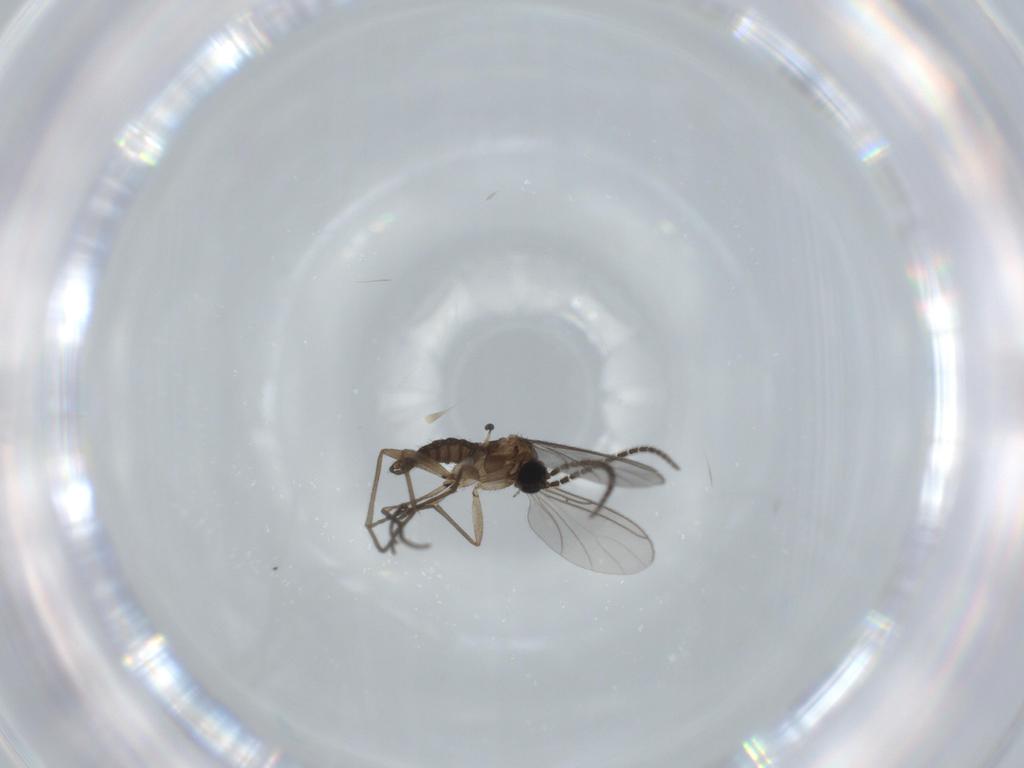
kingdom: Animalia
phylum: Arthropoda
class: Insecta
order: Diptera
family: Sciaridae
